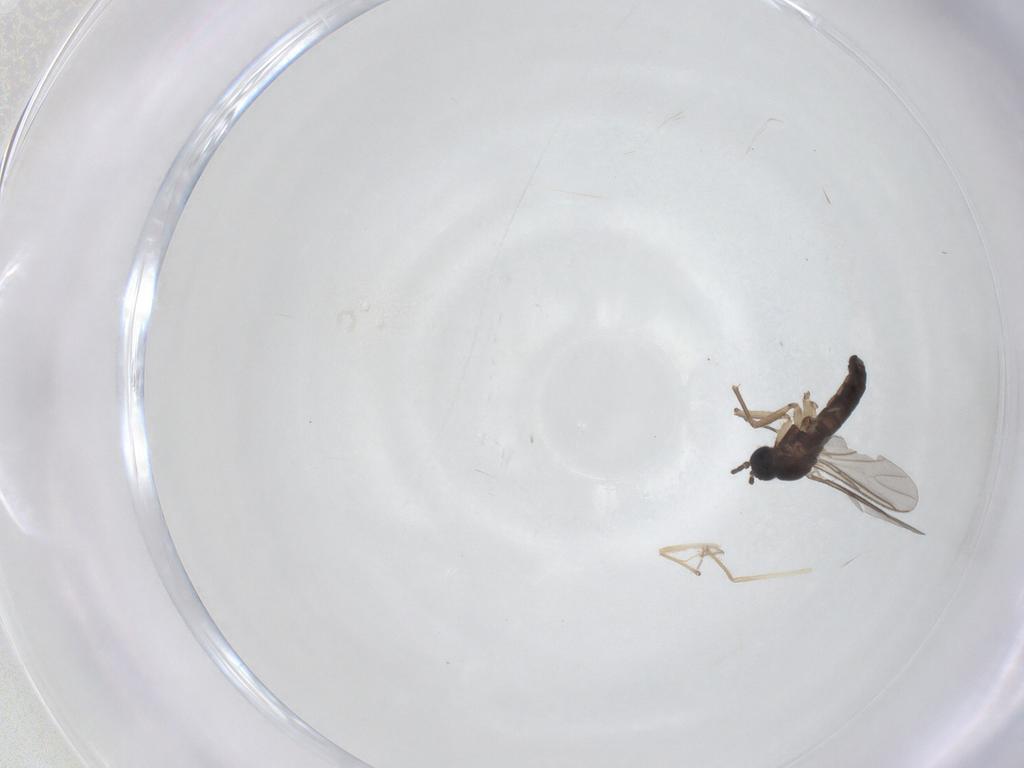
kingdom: Animalia
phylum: Arthropoda
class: Insecta
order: Diptera
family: Sciaridae
